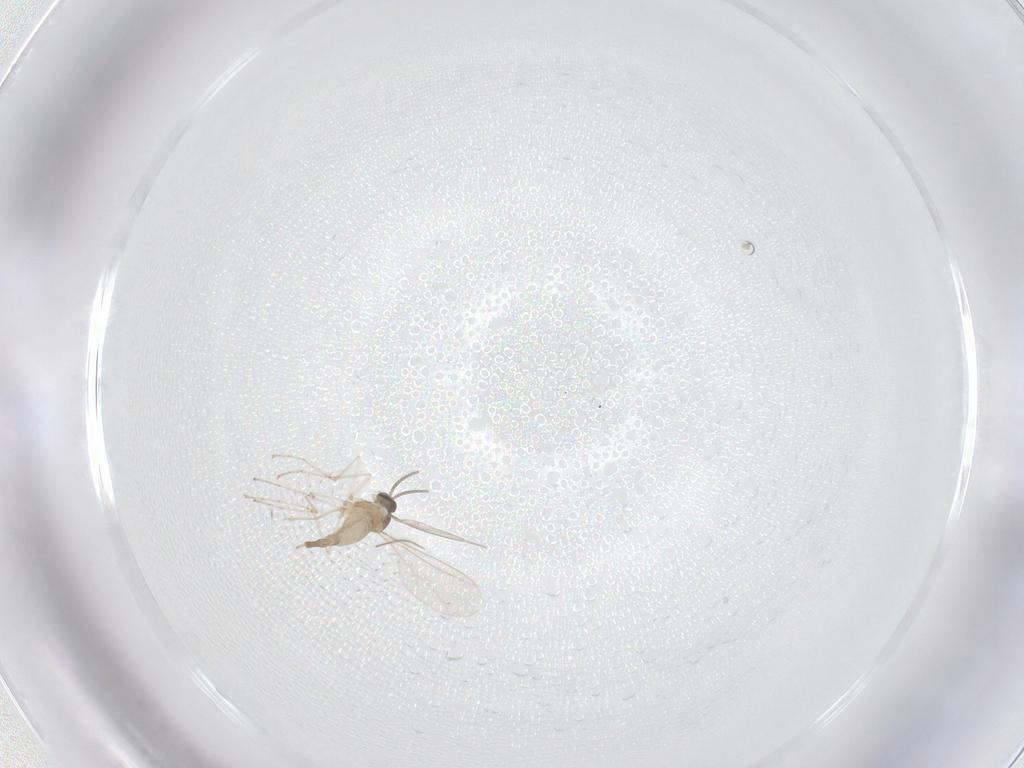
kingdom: Animalia
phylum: Arthropoda
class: Insecta
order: Diptera
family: Cecidomyiidae
